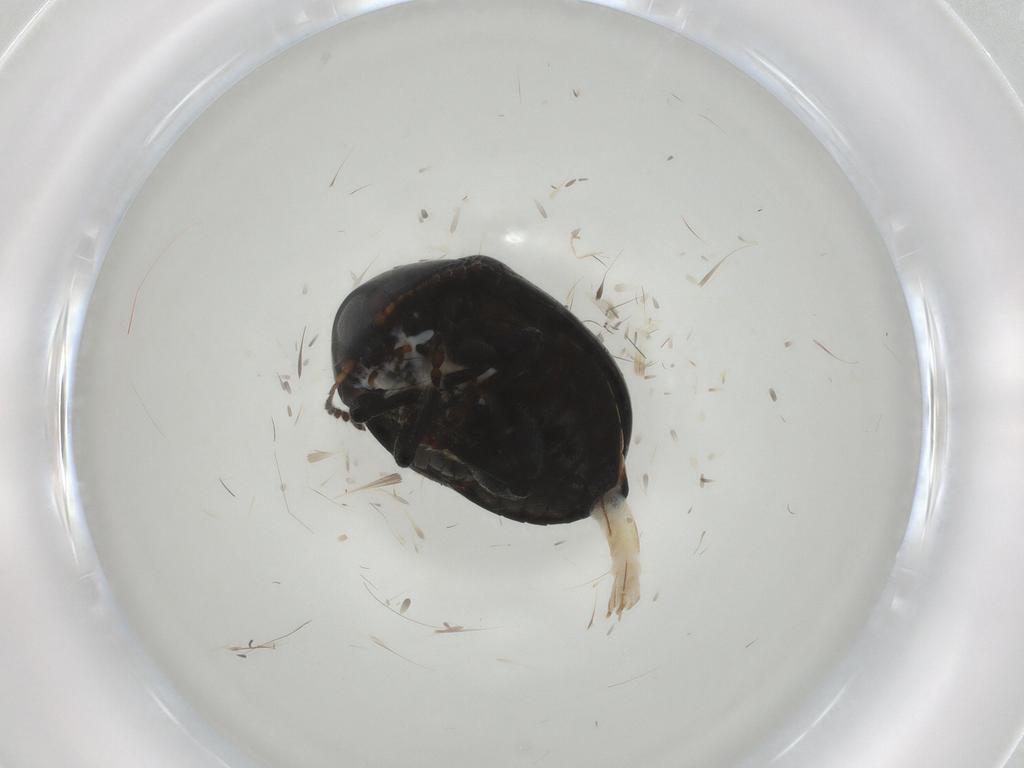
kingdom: Animalia
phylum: Arthropoda
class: Insecta
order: Coleoptera
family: Chrysomelidae
